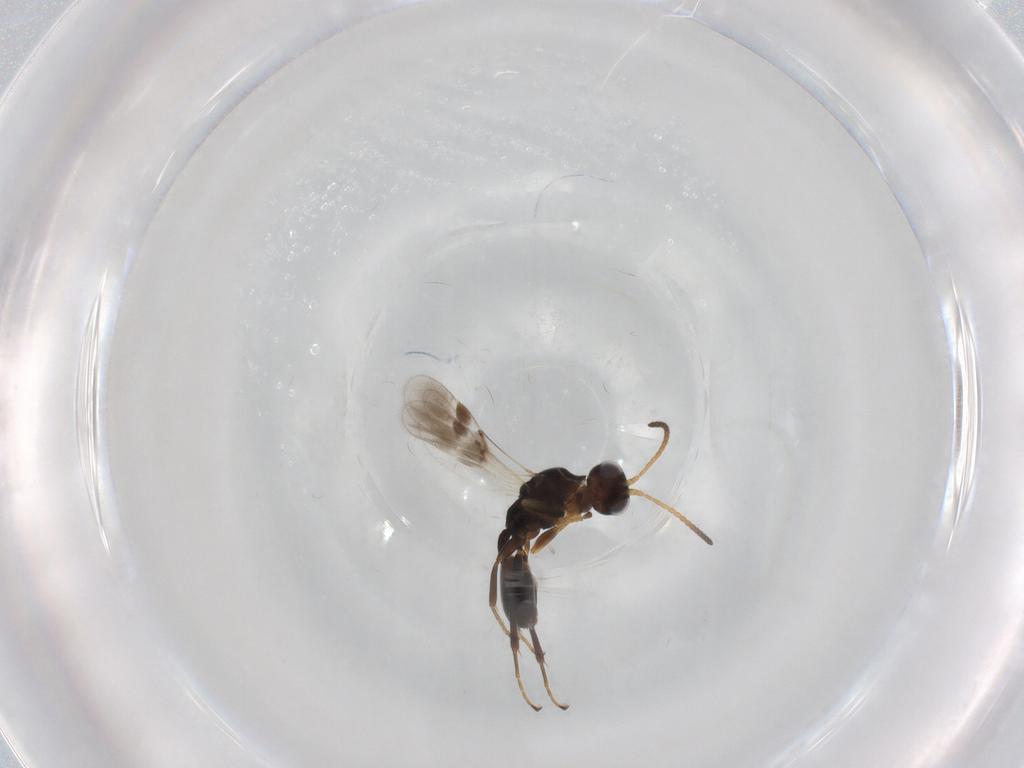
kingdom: Animalia
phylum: Arthropoda
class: Insecta
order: Hymenoptera
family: Braconidae
